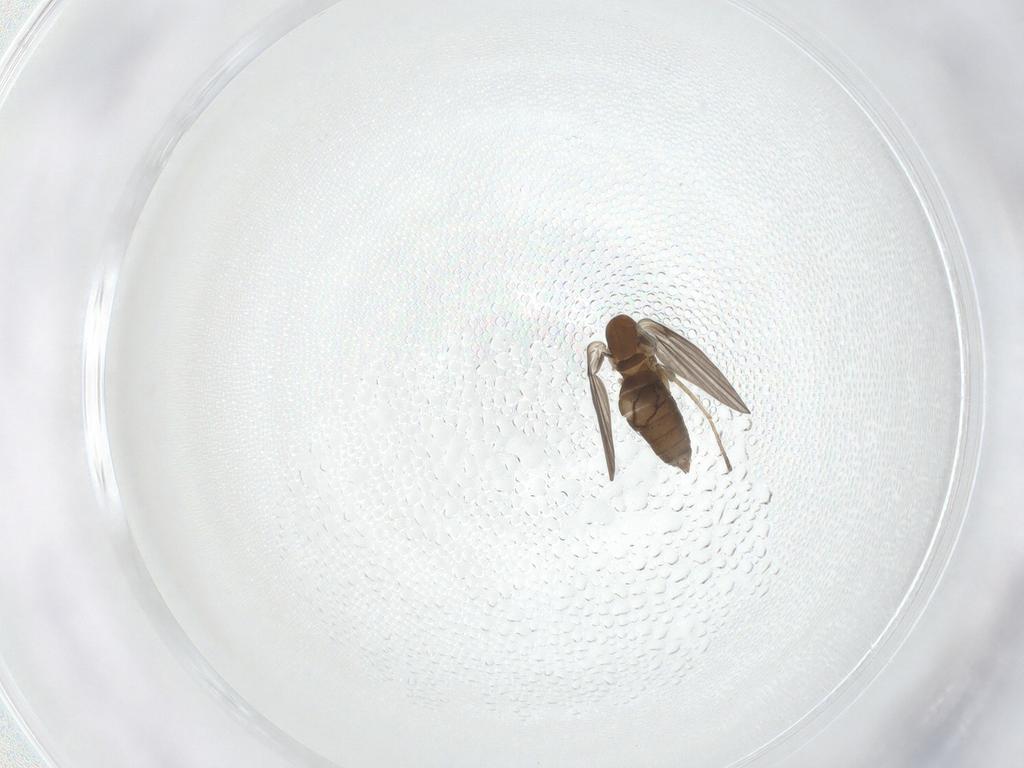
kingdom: Animalia
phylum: Arthropoda
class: Insecta
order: Diptera
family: Psychodidae
